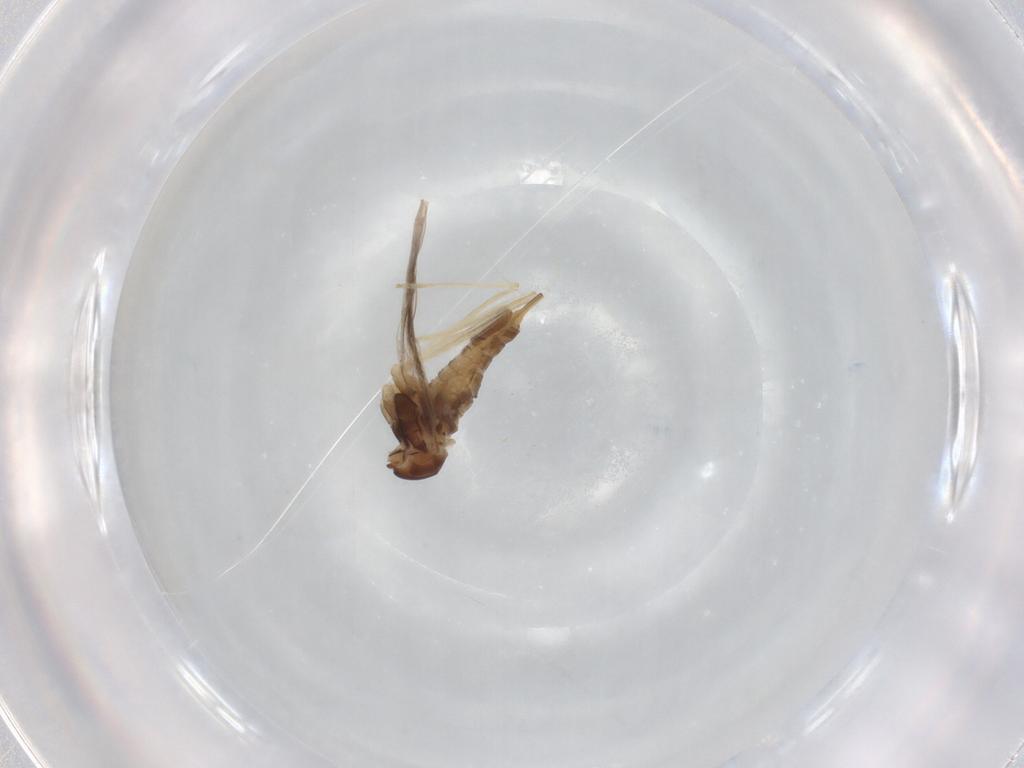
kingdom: Animalia
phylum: Arthropoda
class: Insecta
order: Diptera
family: Cecidomyiidae
